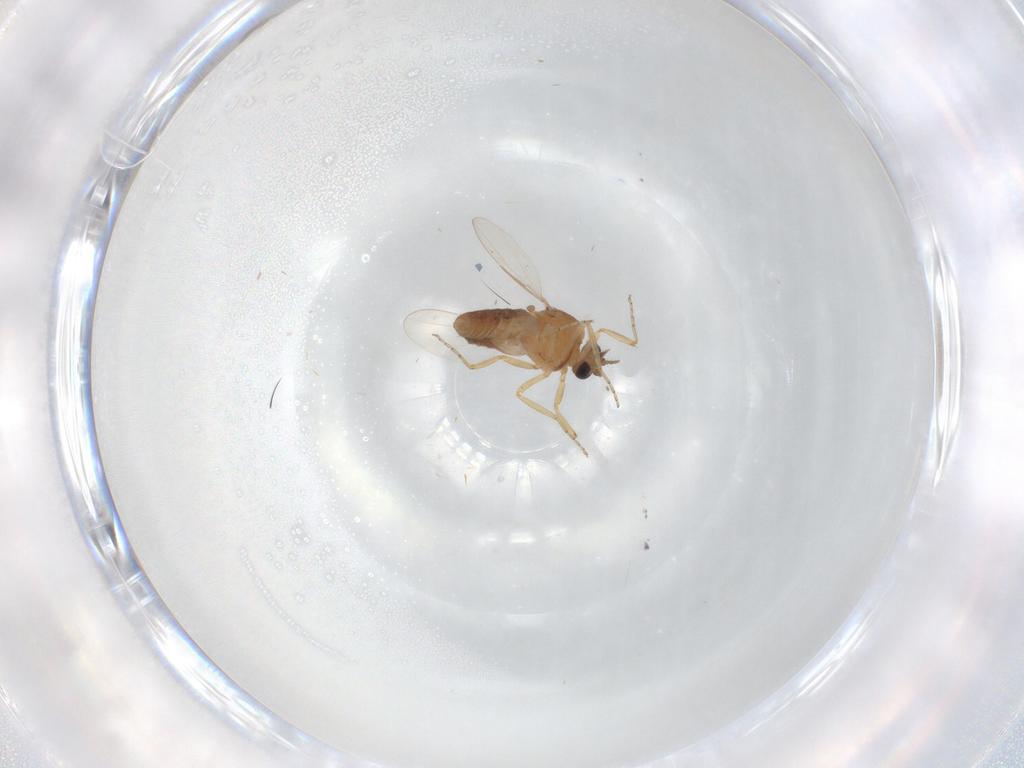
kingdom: Animalia
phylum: Arthropoda
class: Insecta
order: Diptera
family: Ceratopogonidae
